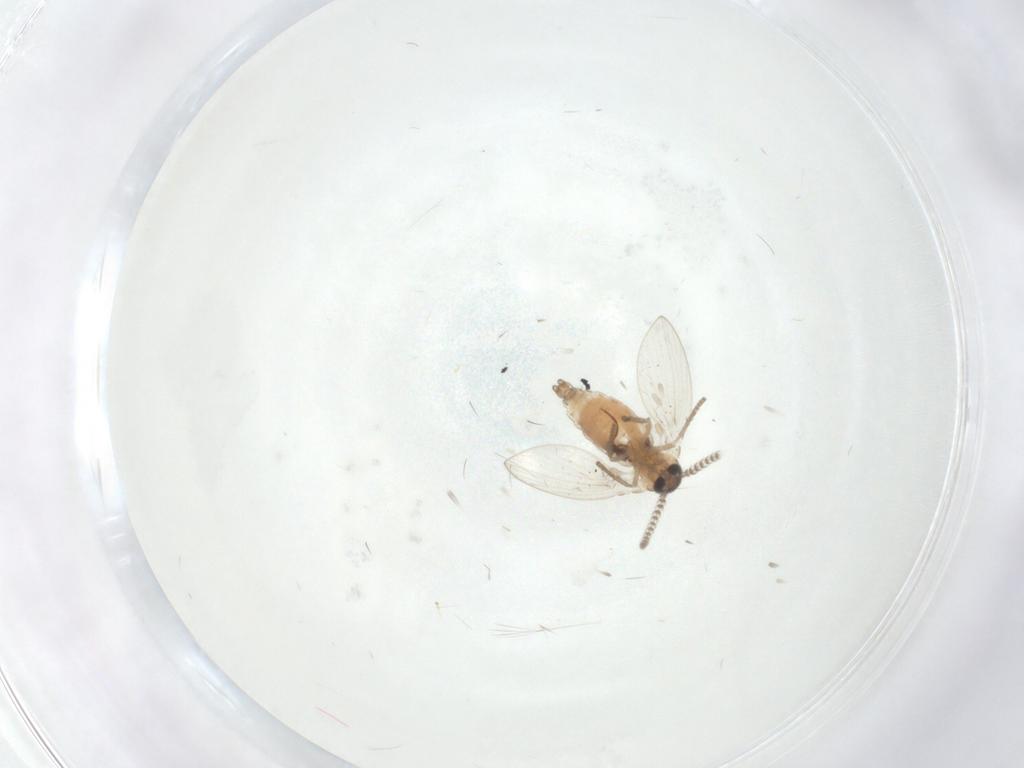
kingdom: Animalia
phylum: Arthropoda
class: Insecta
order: Diptera
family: Psychodidae
